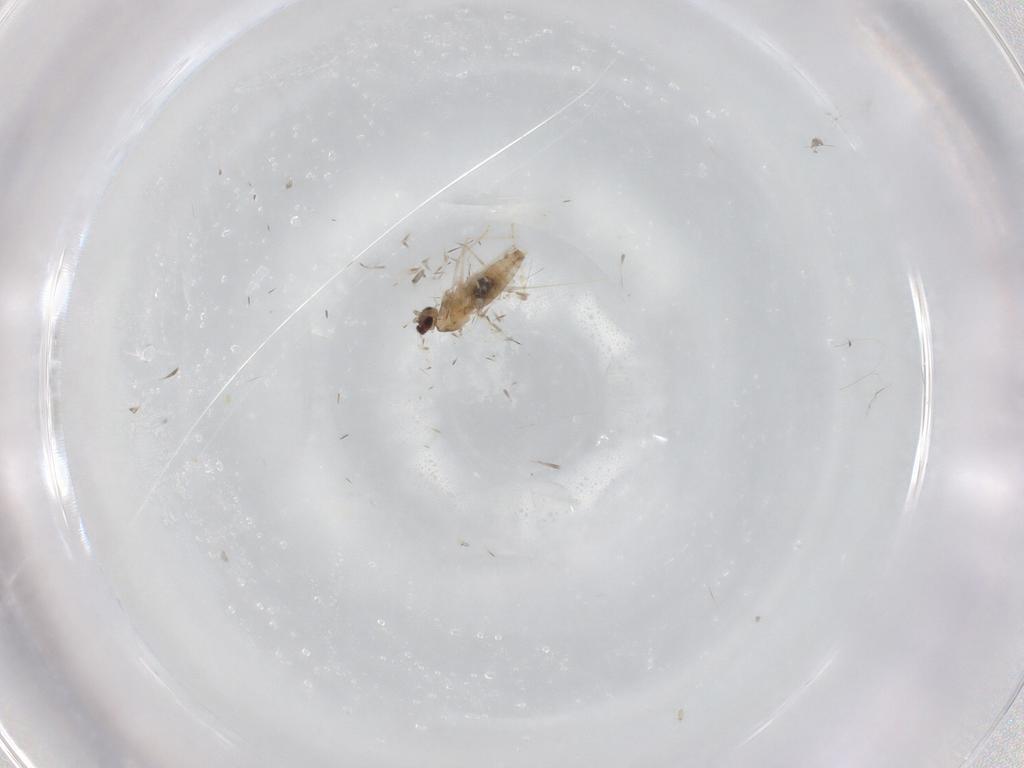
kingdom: Animalia
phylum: Arthropoda
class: Insecta
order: Diptera
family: Cecidomyiidae
